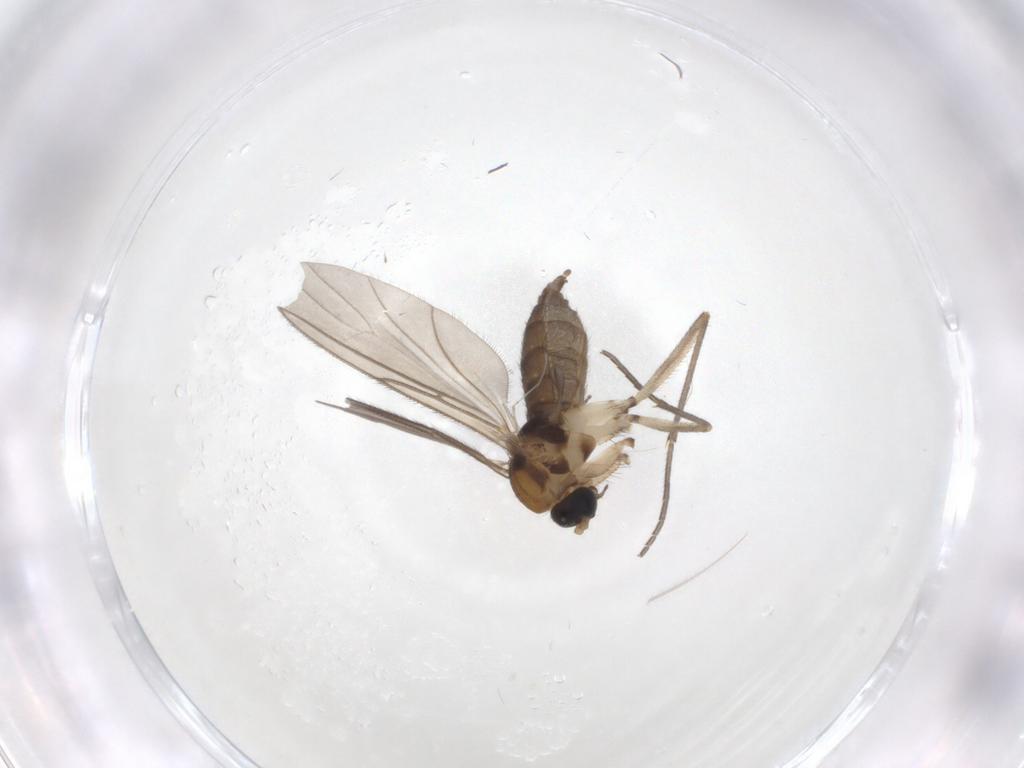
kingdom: Animalia
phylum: Arthropoda
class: Insecta
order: Diptera
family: Sciaridae
